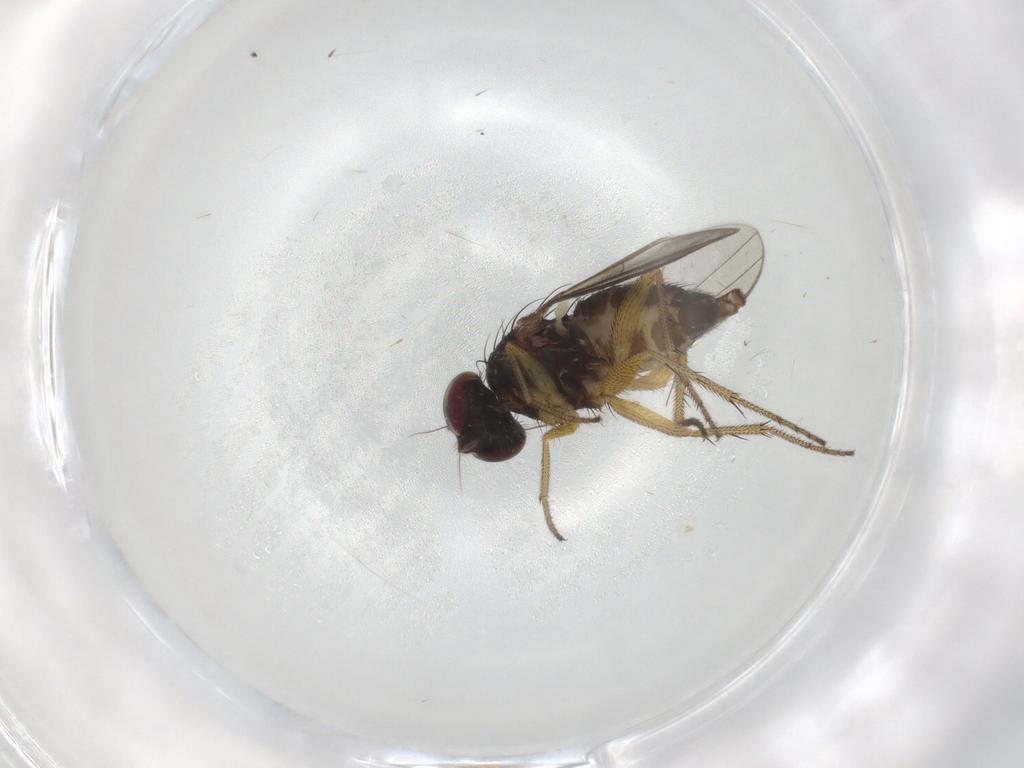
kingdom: Animalia
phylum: Arthropoda
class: Insecta
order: Diptera
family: Dolichopodidae
